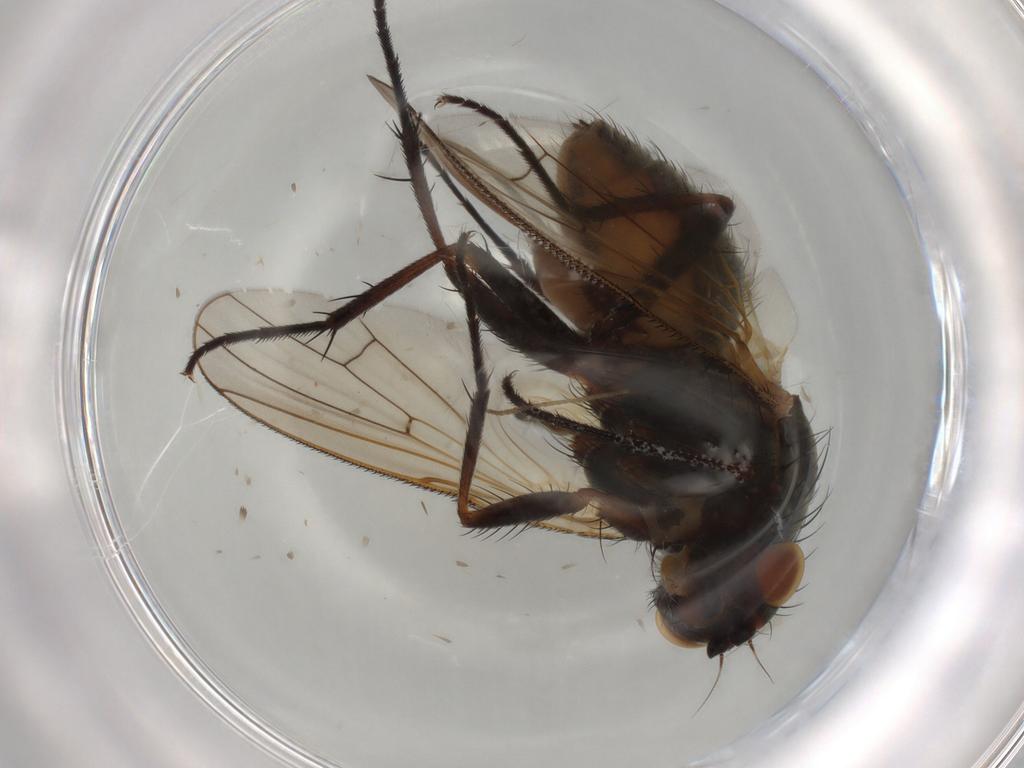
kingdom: Animalia
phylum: Arthropoda
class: Insecta
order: Diptera
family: Anthomyiidae
